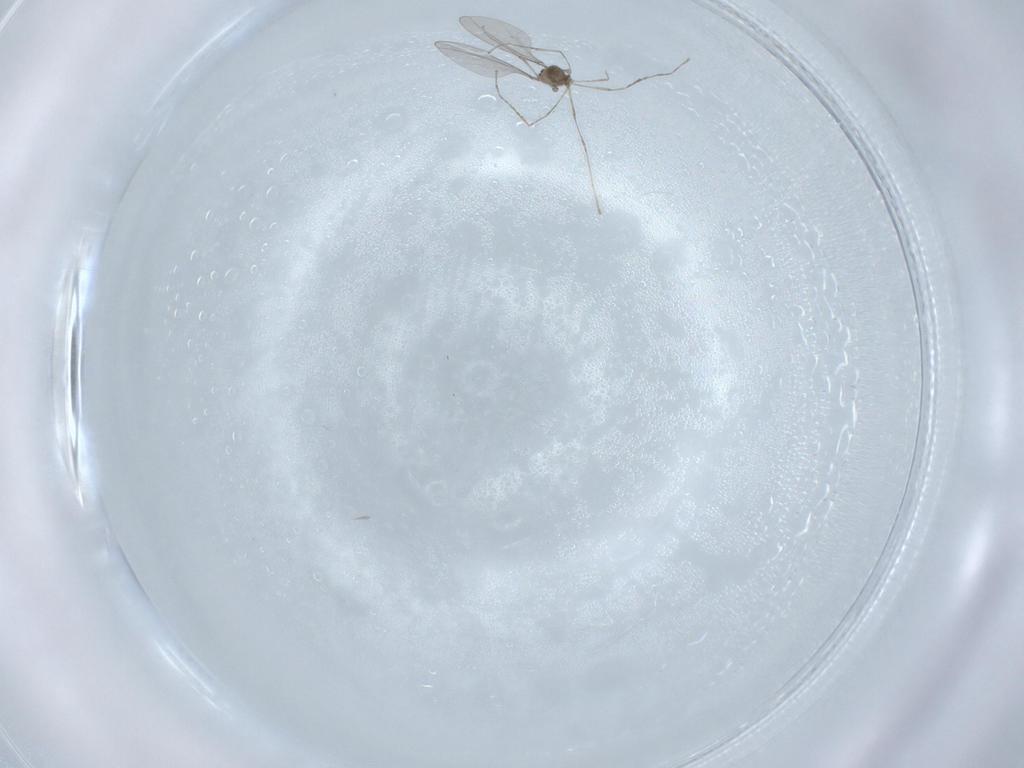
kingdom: Animalia
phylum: Arthropoda
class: Insecta
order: Diptera
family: Cecidomyiidae
